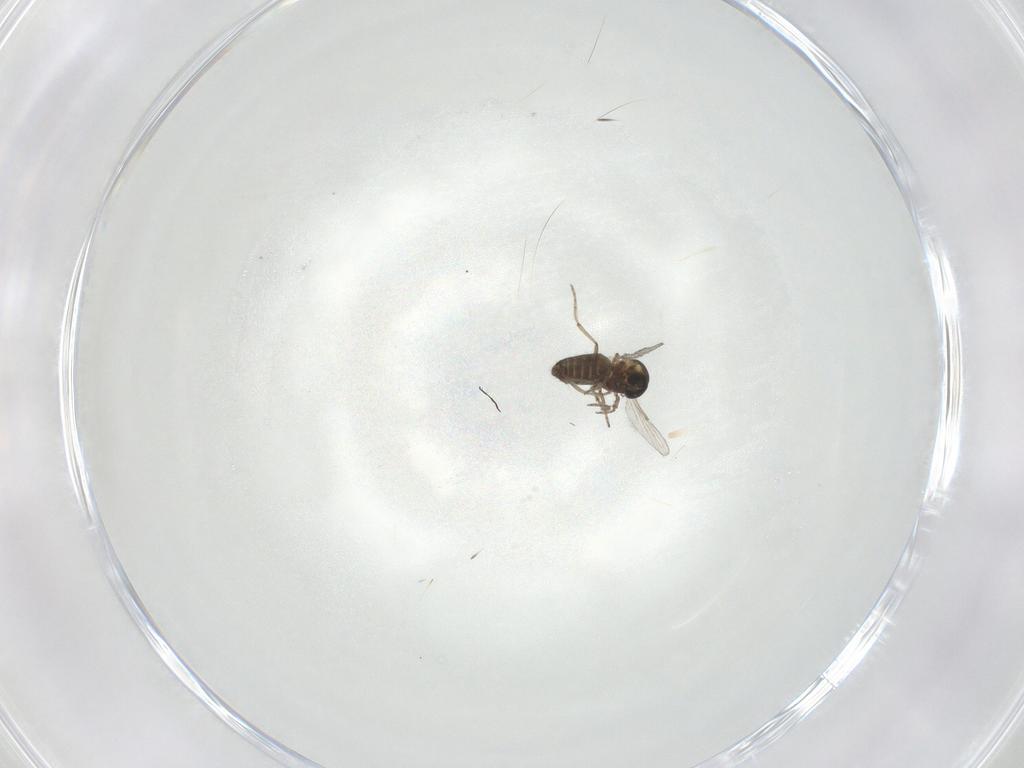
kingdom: Animalia
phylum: Arthropoda
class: Insecta
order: Diptera
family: Ceratopogonidae
